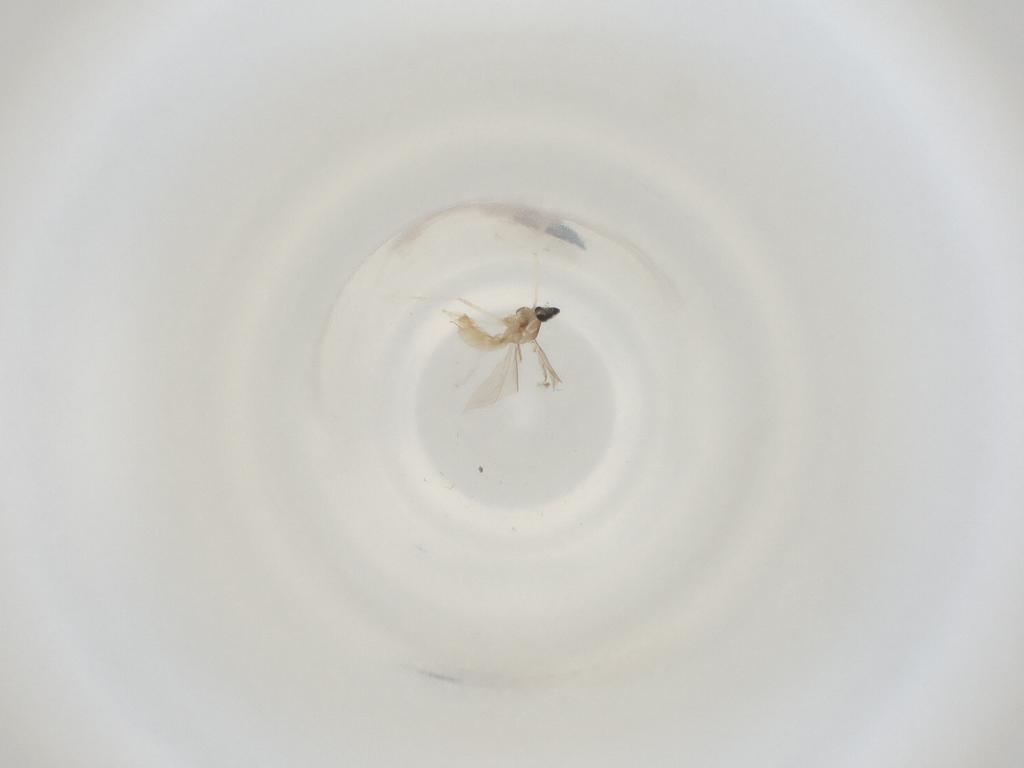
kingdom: Animalia
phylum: Arthropoda
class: Insecta
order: Diptera
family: Cecidomyiidae
